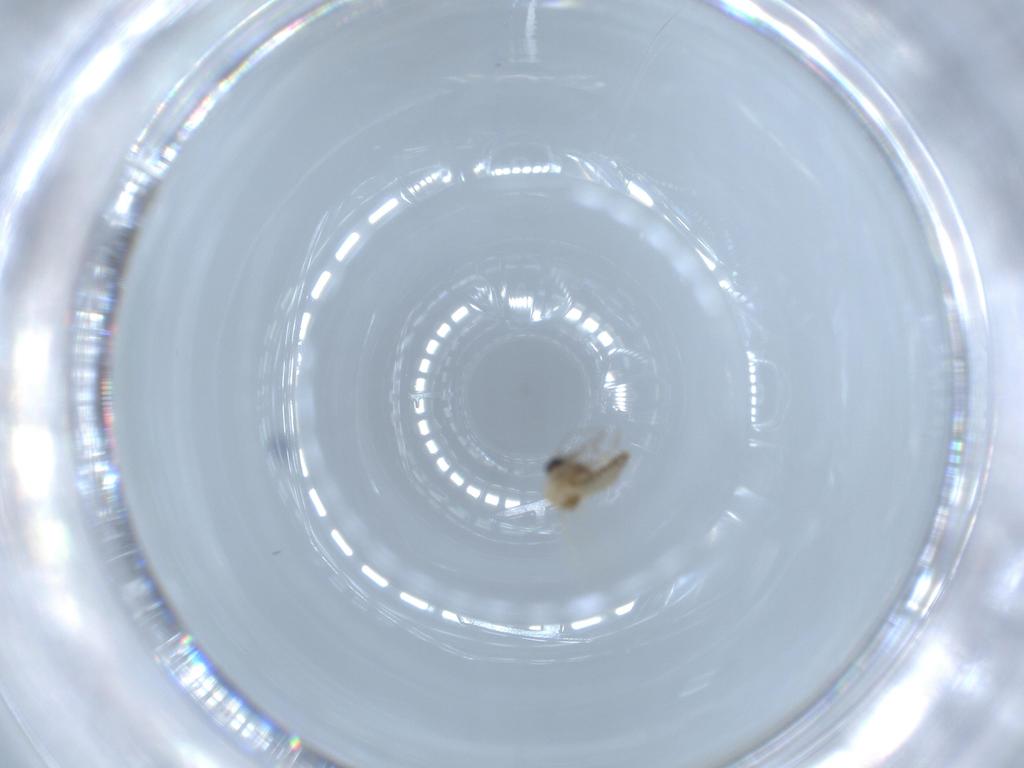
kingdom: Animalia
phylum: Arthropoda
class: Insecta
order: Diptera
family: Ceratopogonidae
